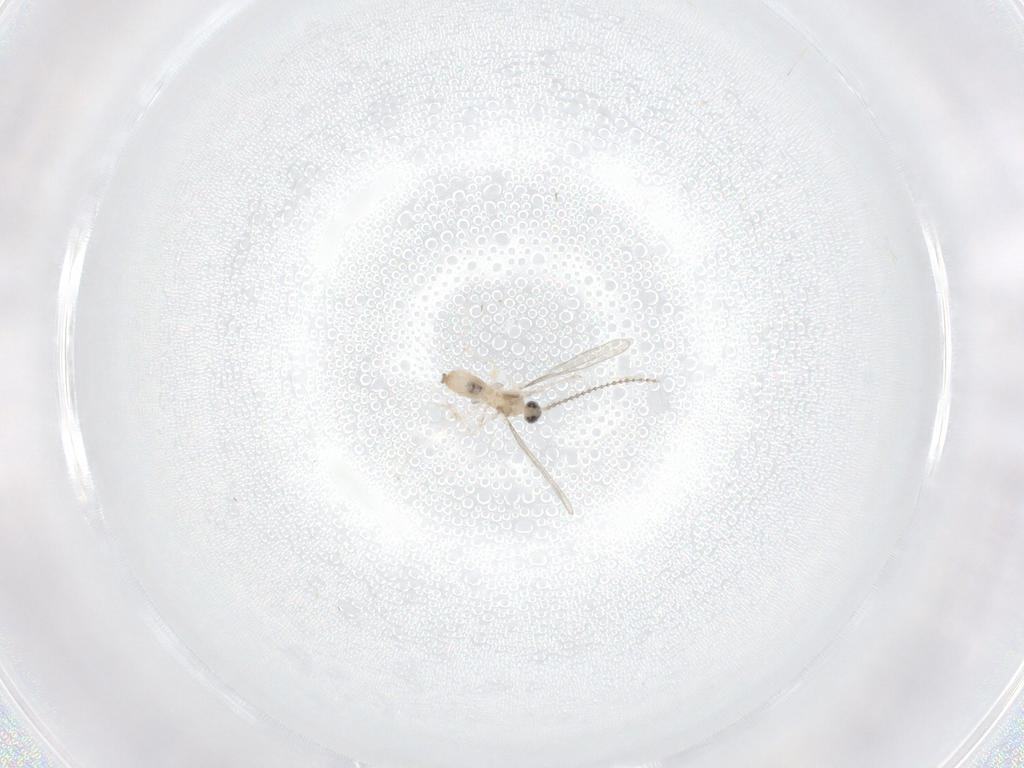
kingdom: Animalia
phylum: Arthropoda
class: Insecta
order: Diptera
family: Cecidomyiidae
